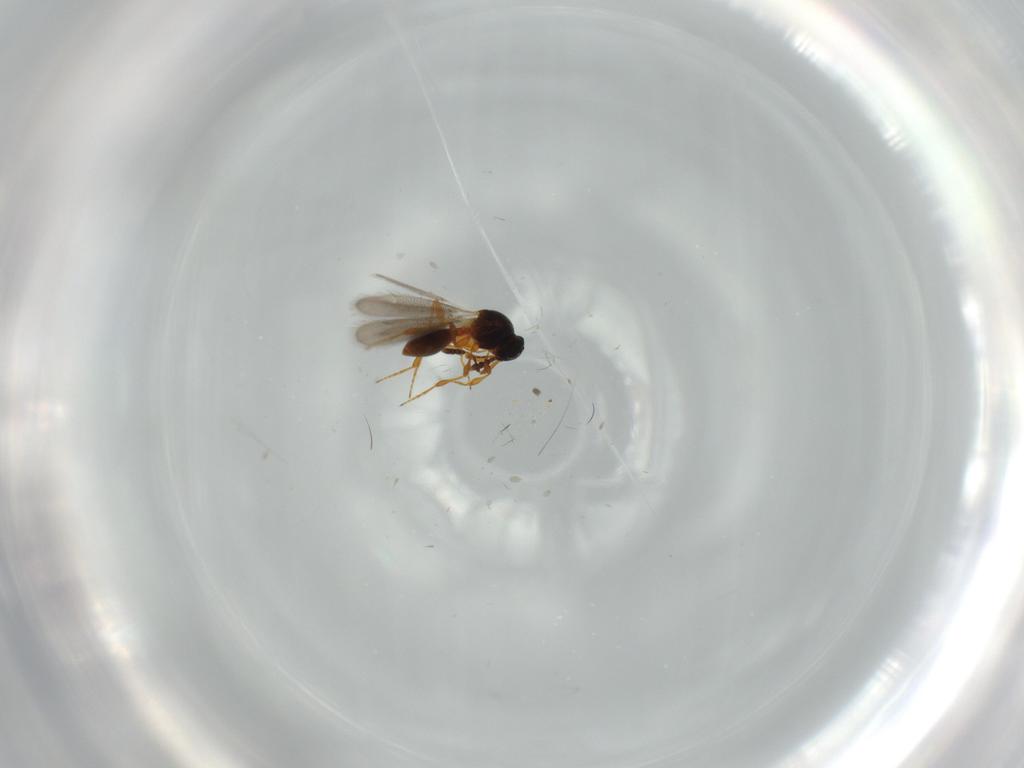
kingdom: Animalia
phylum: Arthropoda
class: Insecta
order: Hymenoptera
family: Scelionidae
